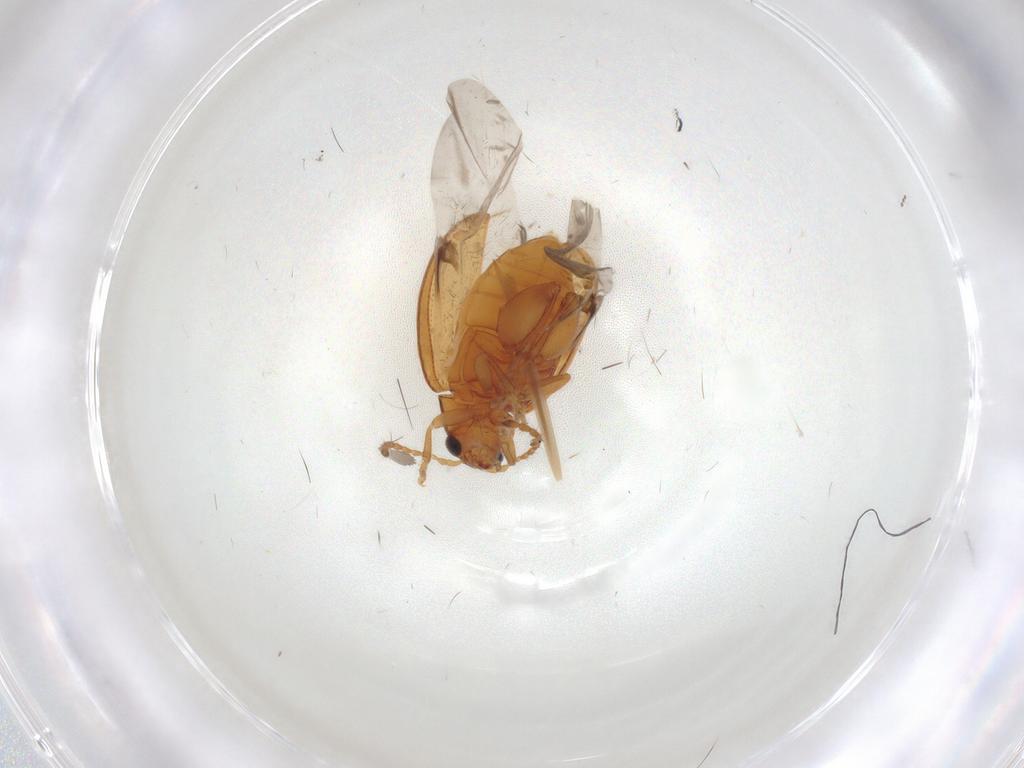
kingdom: Animalia
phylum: Arthropoda
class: Insecta
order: Coleoptera
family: Chrysomelidae
